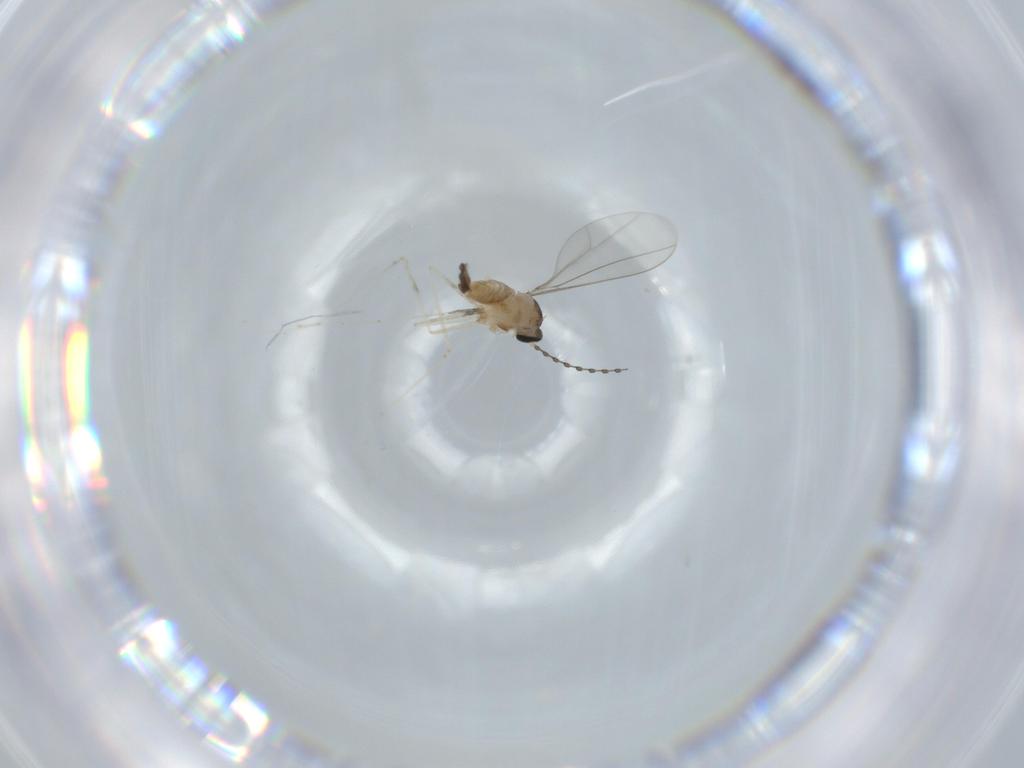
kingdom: Animalia
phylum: Arthropoda
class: Insecta
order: Diptera
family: Cecidomyiidae
